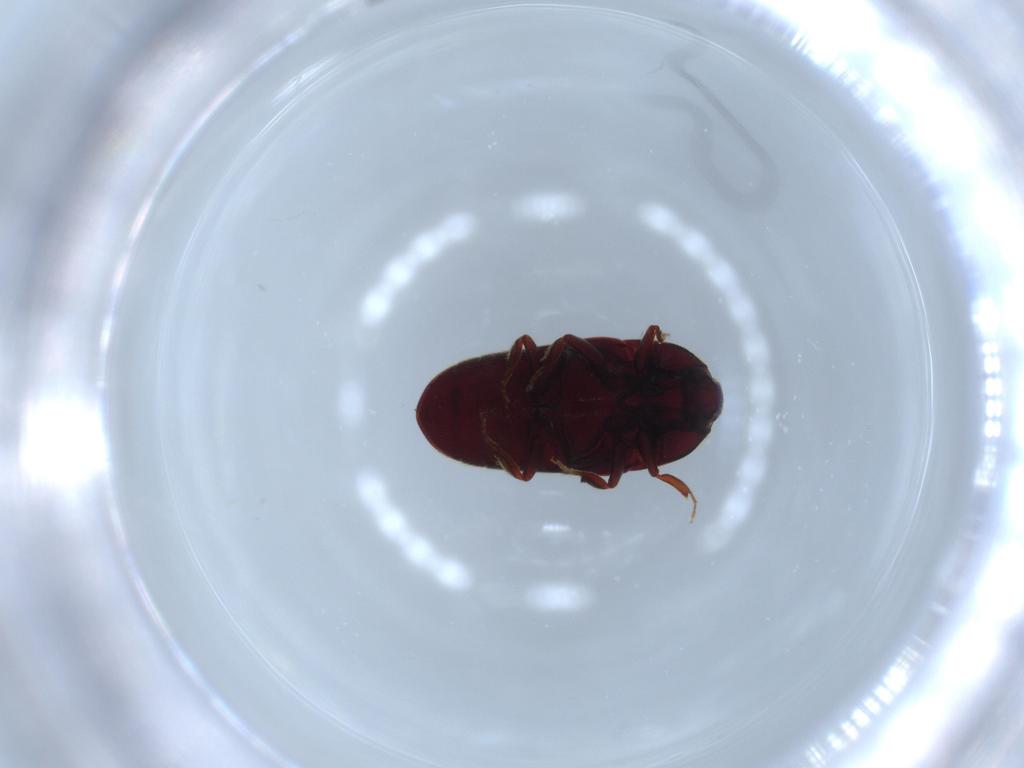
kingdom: Animalia
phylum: Arthropoda
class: Insecta
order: Coleoptera
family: Throscidae
